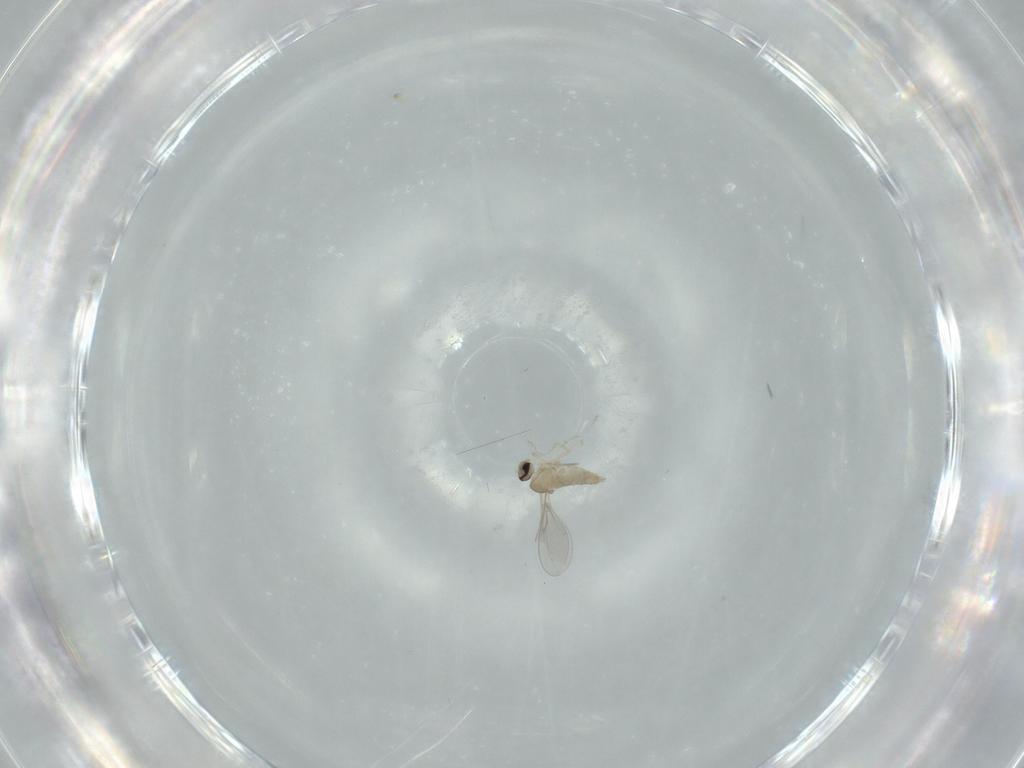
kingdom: Animalia
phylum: Arthropoda
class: Insecta
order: Diptera
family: Cecidomyiidae
